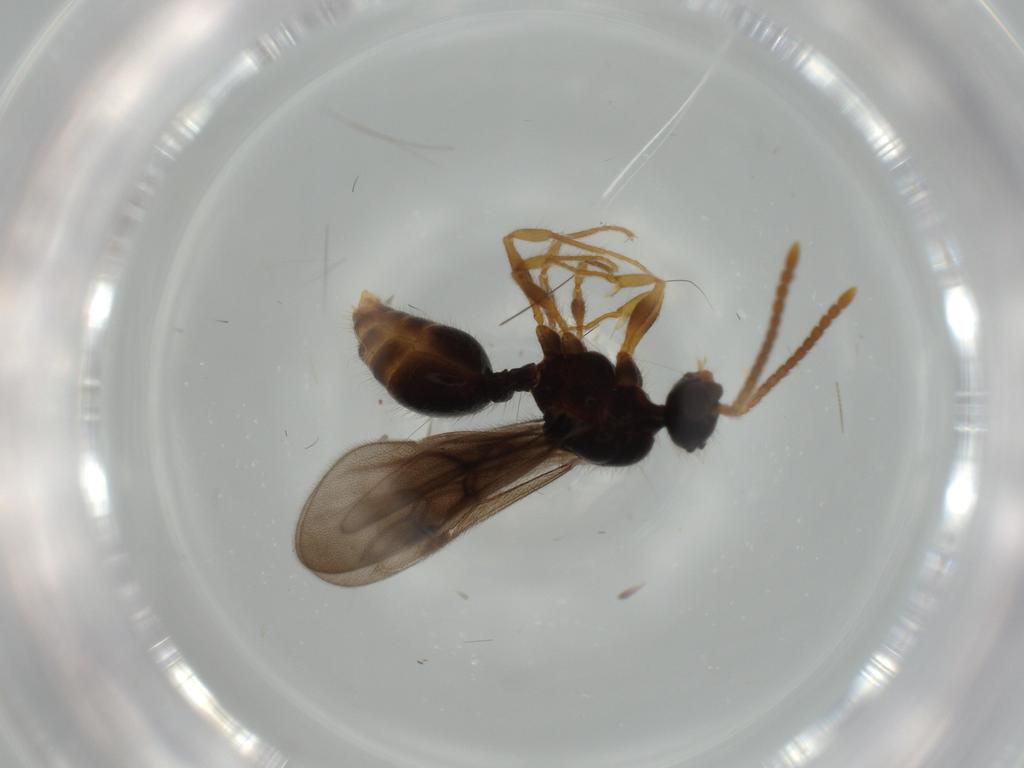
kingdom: Animalia
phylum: Arthropoda
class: Insecta
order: Hymenoptera
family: Formicidae
